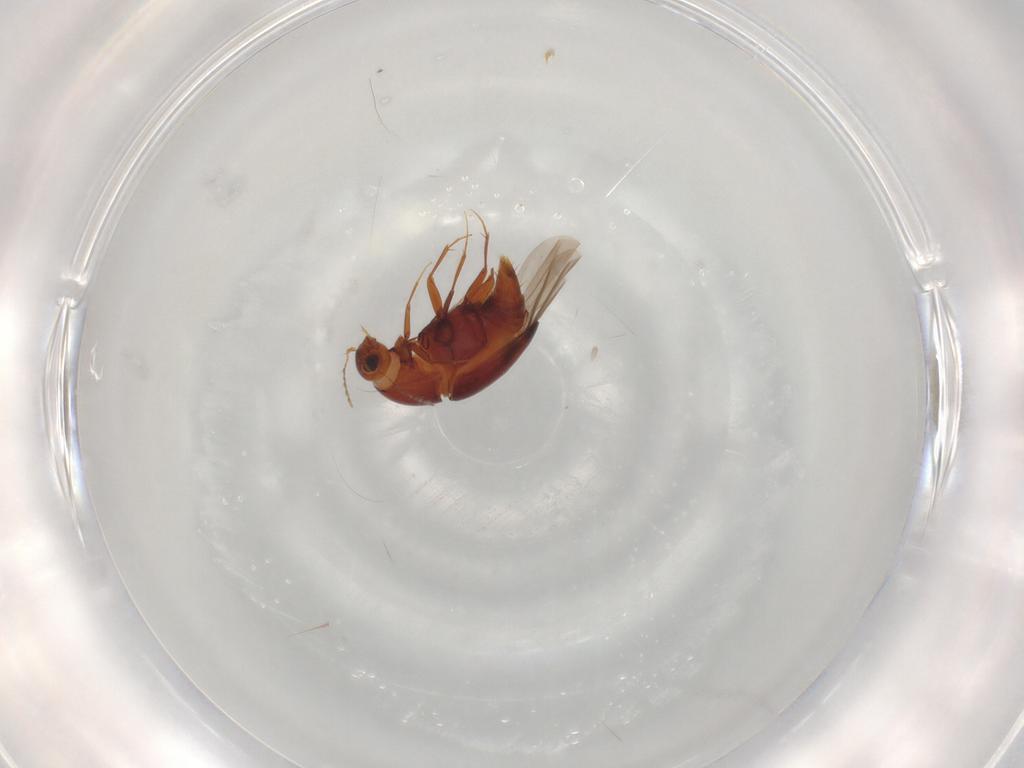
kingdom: Animalia
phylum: Arthropoda
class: Insecta
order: Coleoptera
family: Staphylinidae
